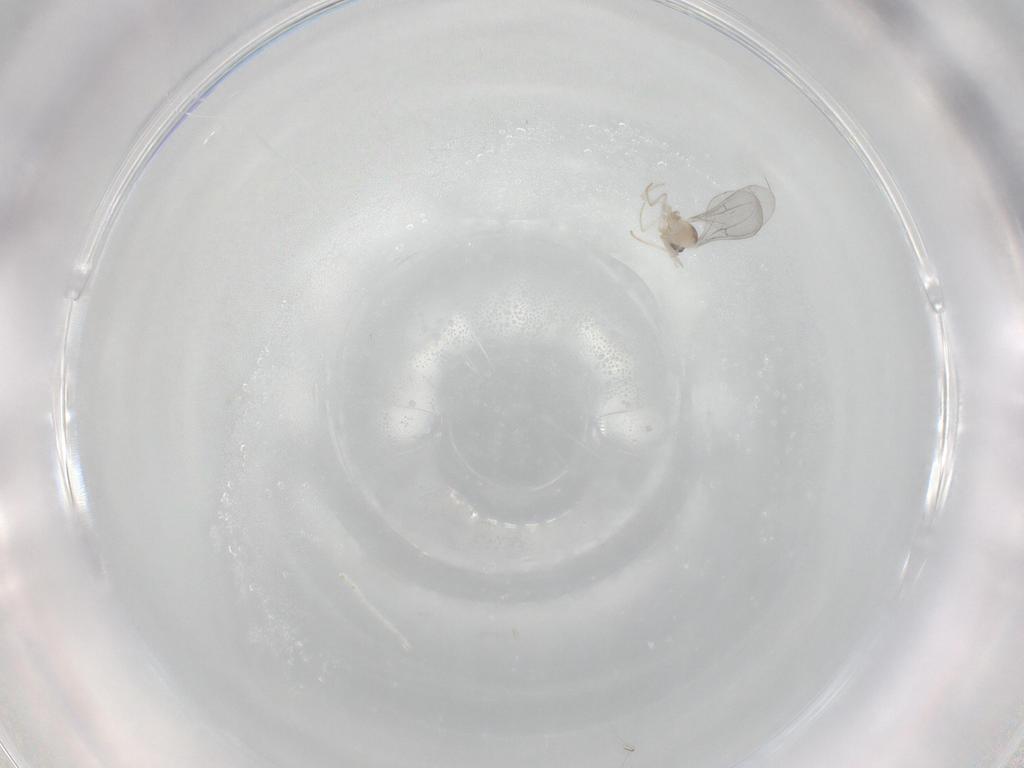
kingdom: Animalia
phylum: Arthropoda
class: Insecta
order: Diptera
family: Cecidomyiidae
